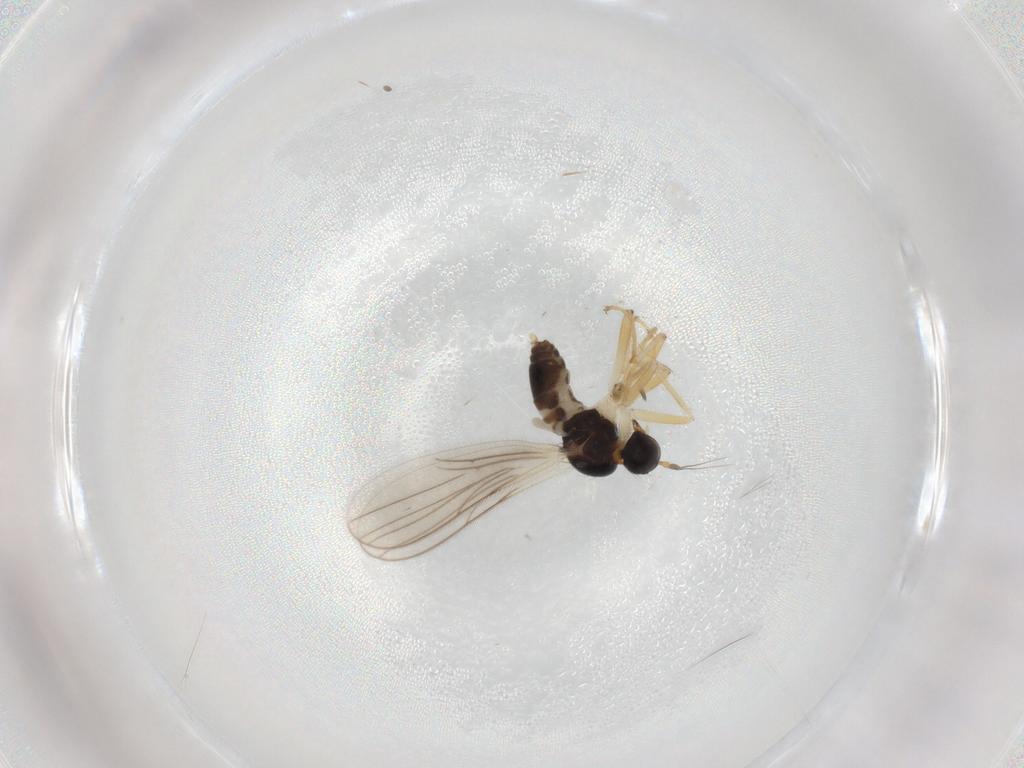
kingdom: Animalia
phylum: Arthropoda
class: Insecta
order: Diptera
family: Hybotidae
